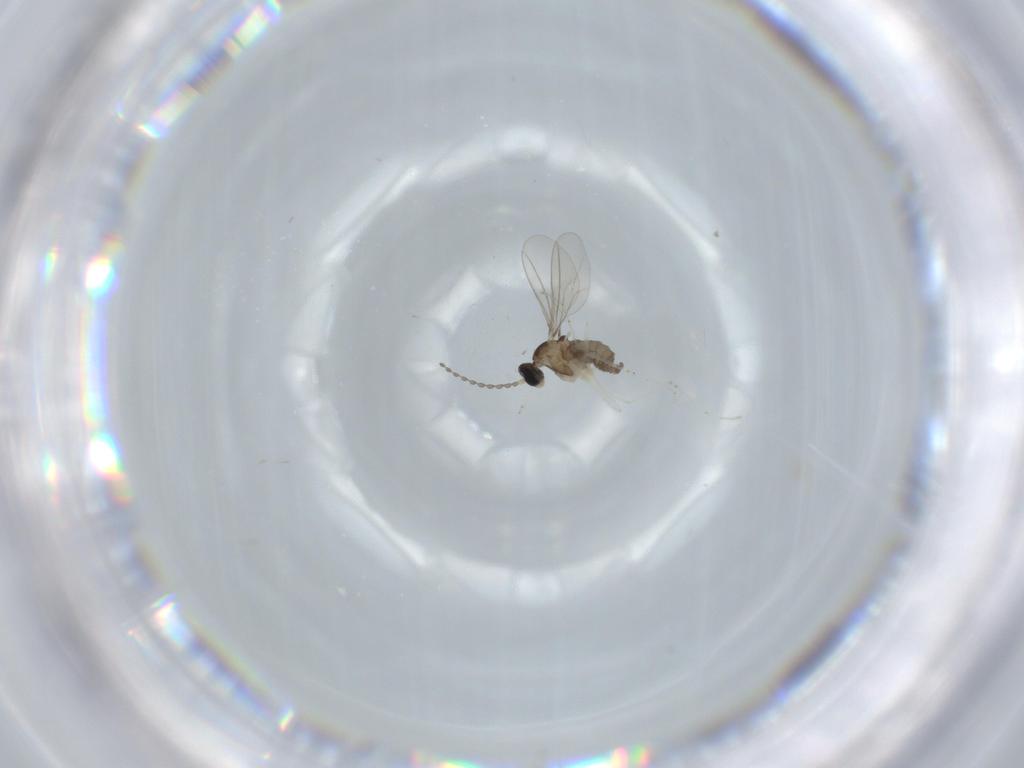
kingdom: Animalia
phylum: Arthropoda
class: Insecta
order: Diptera
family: Cecidomyiidae
